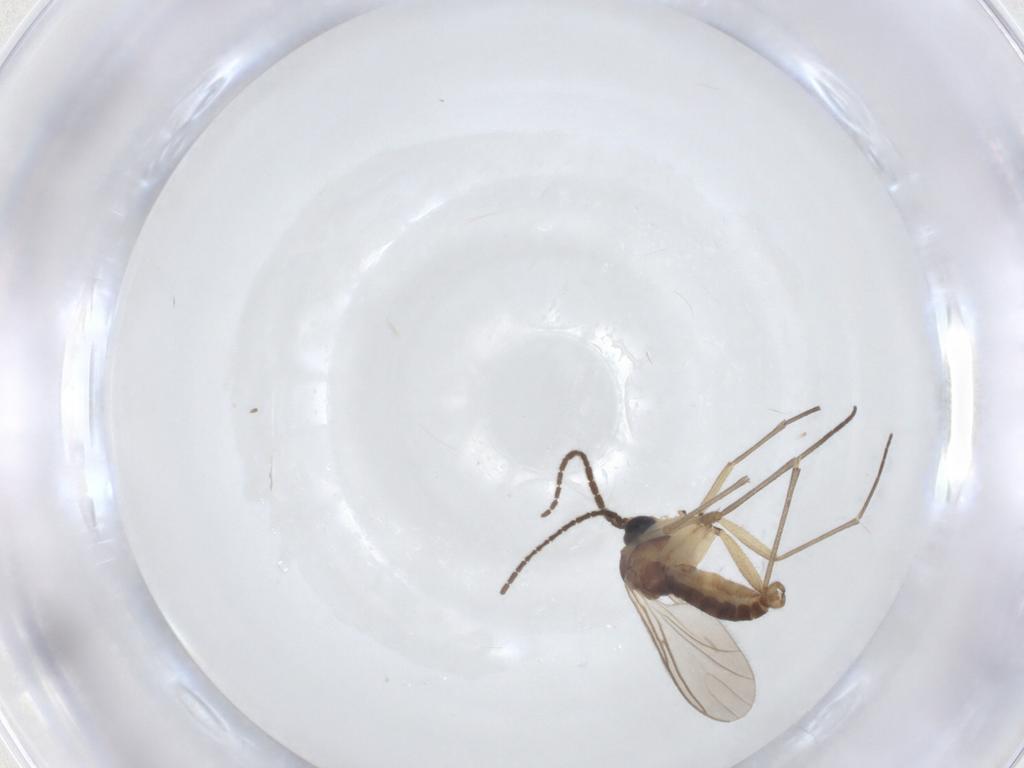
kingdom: Animalia
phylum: Arthropoda
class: Insecta
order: Diptera
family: Sciaridae
